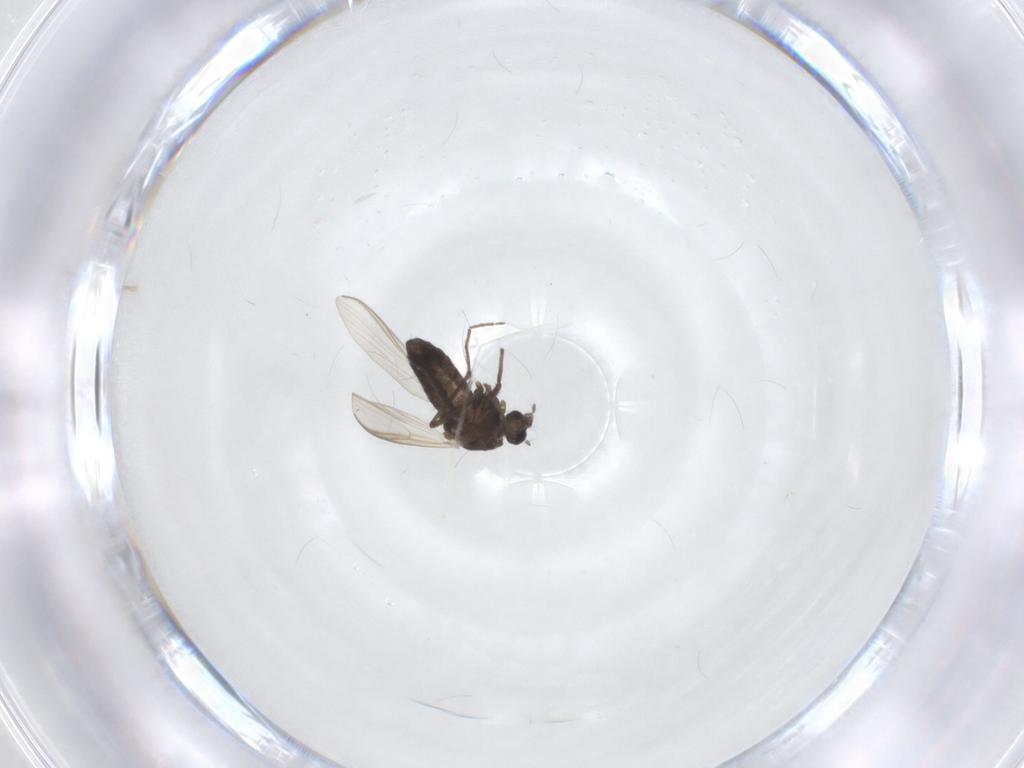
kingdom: Animalia
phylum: Arthropoda
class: Insecta
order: Diptera
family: Chironomidae
